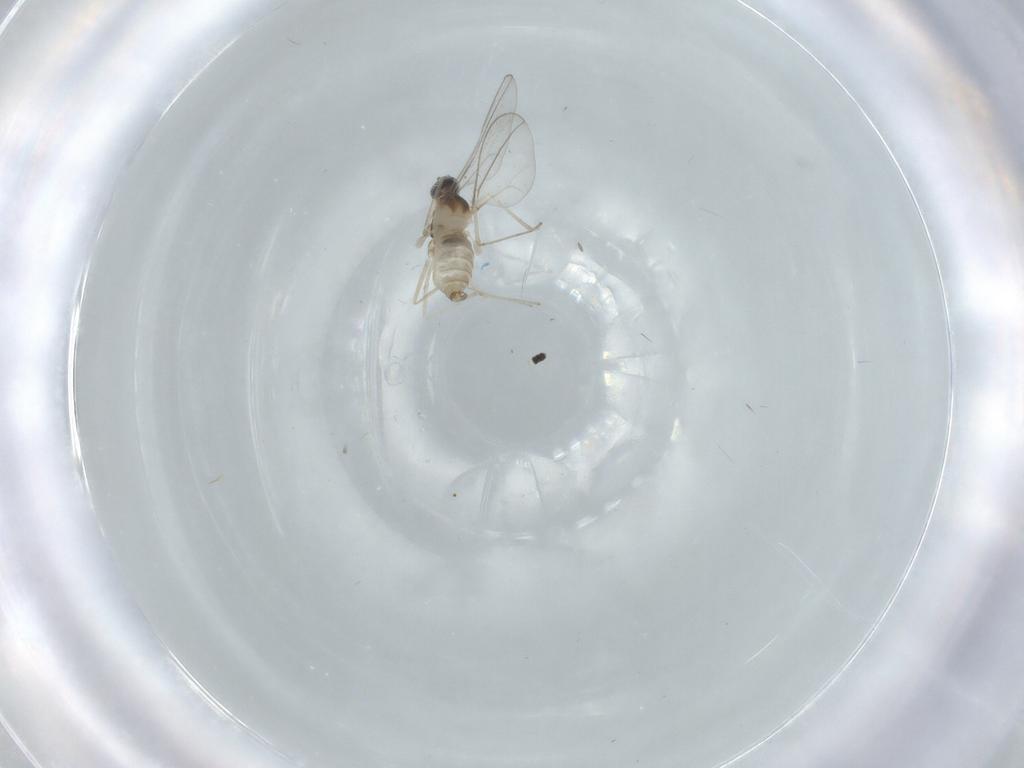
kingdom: Animalia
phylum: Arthropoda
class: Insecta
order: Diptera
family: Cecidomyiidae
